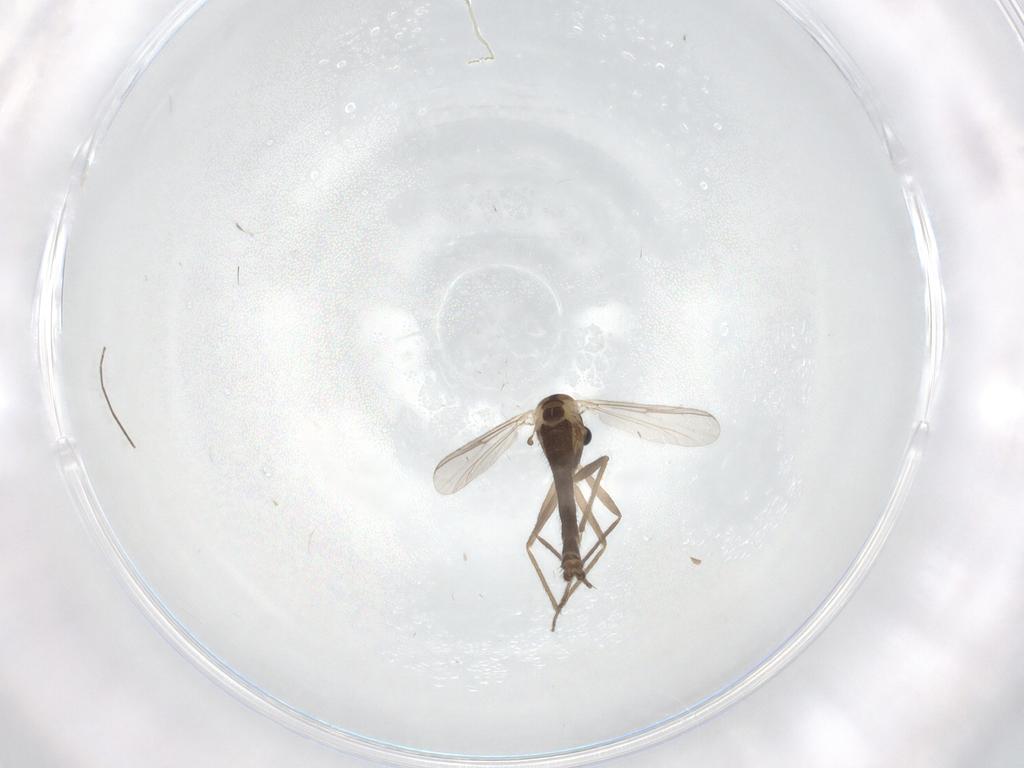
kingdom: Animalia
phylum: Arthropoda
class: Insecta
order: Diptera
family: Chironomidae
